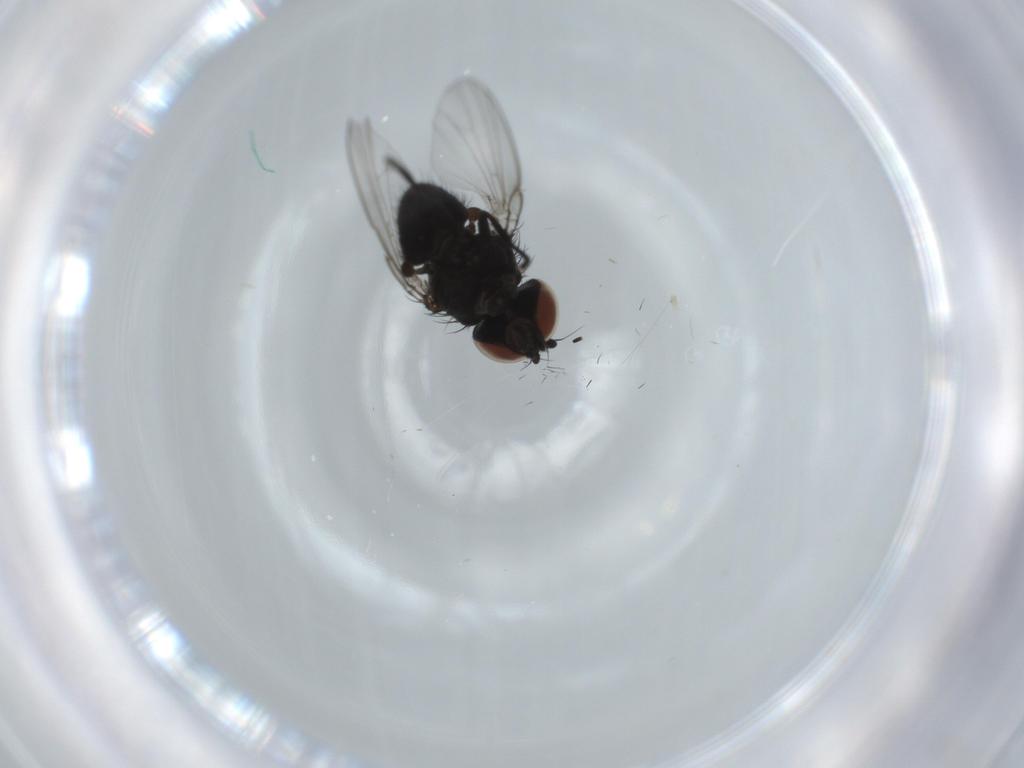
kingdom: Animalia
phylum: Arthropoda
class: Insecta
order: Diptera
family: Milichiidae
